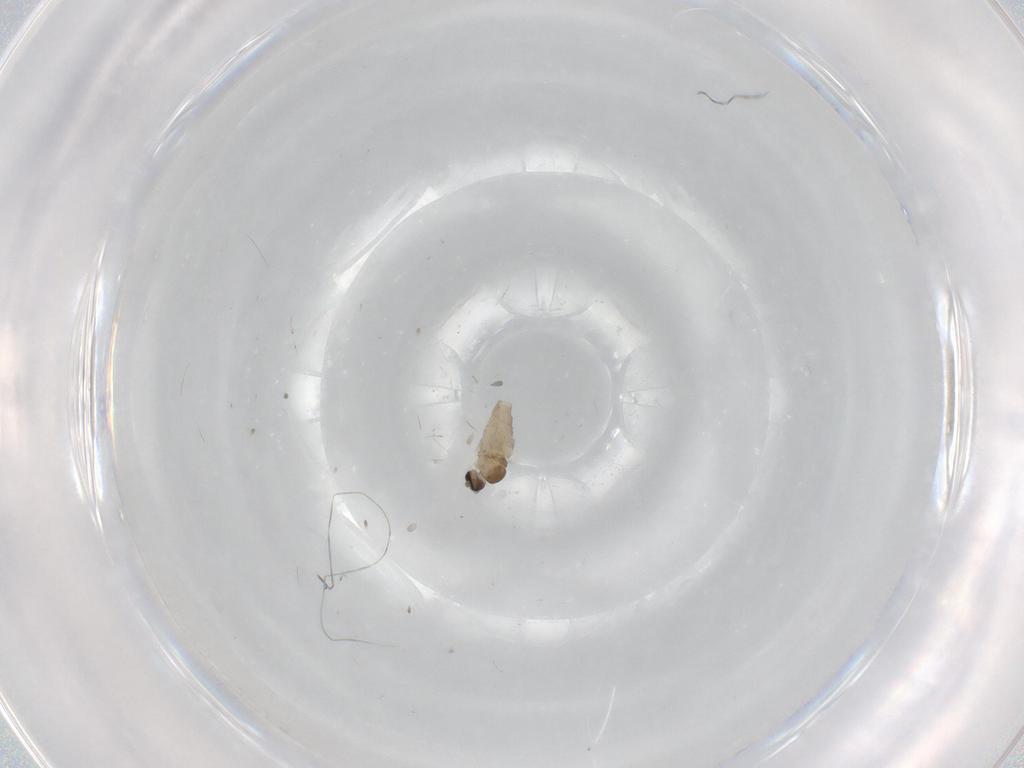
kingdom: Animalia
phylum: Arthropoda
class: Insecta
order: Diptera
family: Cecidomyiidae
